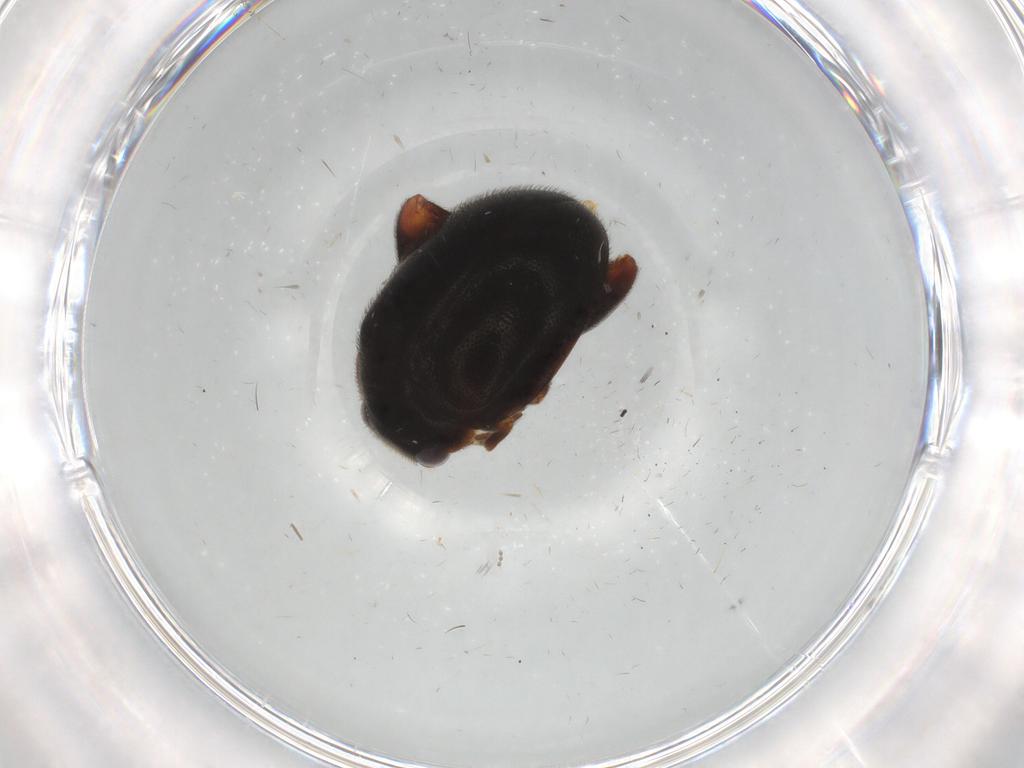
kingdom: Animalia
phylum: Arthropoda
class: Insecta
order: Coleoptera
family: Scirtidae
